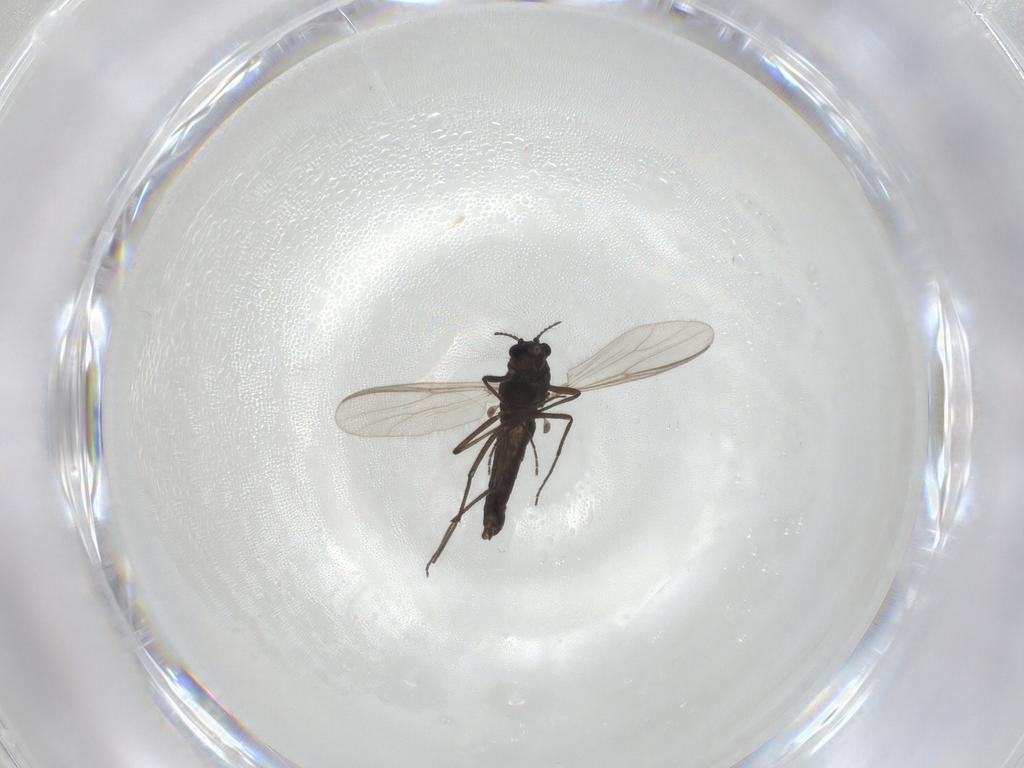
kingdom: Animalia
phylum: Arthropoda
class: Insecta
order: Diptera
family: Chironomidae
